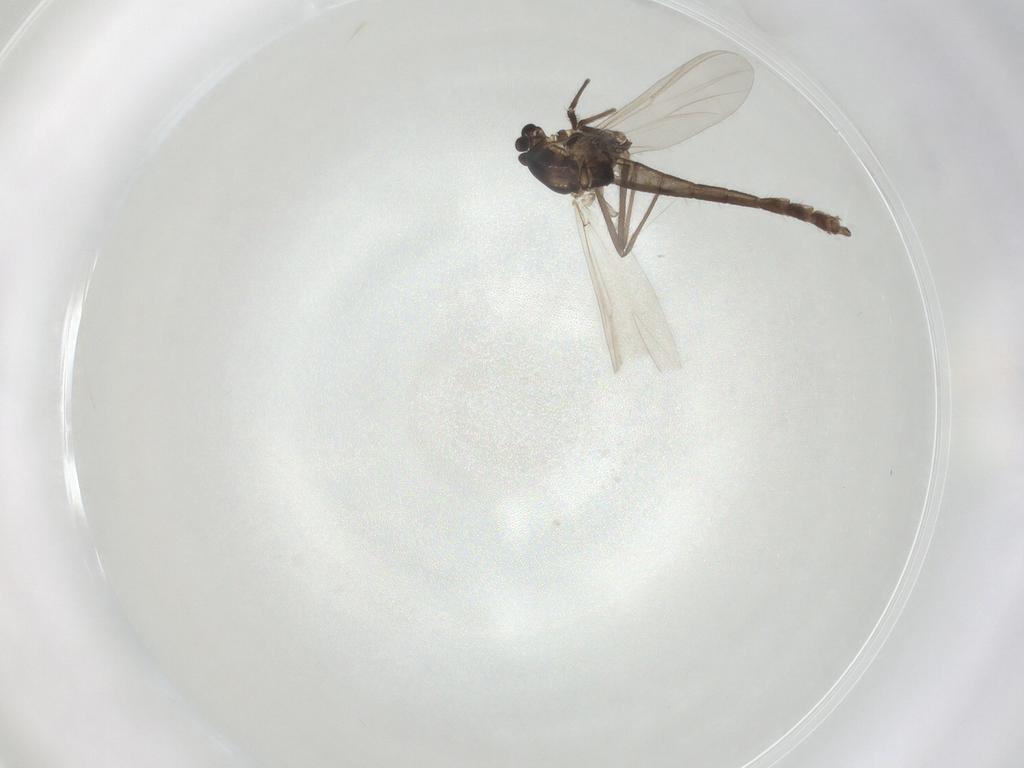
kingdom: Animalia
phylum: Arthropoda
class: Insecta
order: Diptera
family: Chironomidae
